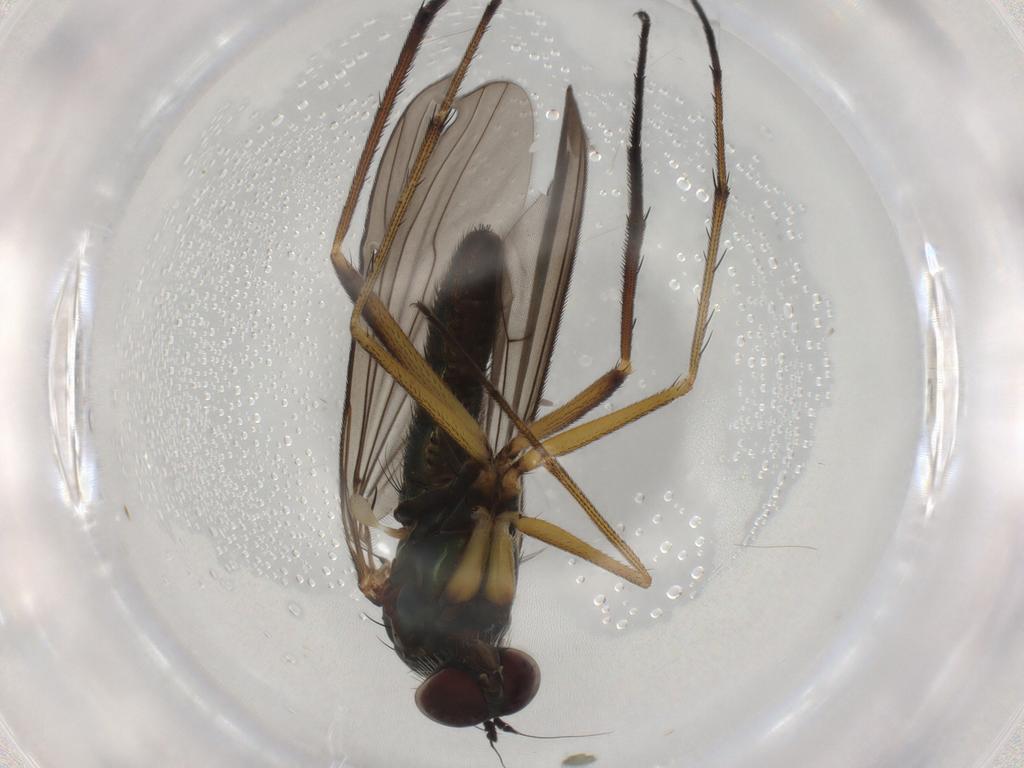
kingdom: Animalia
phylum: Arthropoda
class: Insecta
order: Diptera
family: Dolichopodidae
